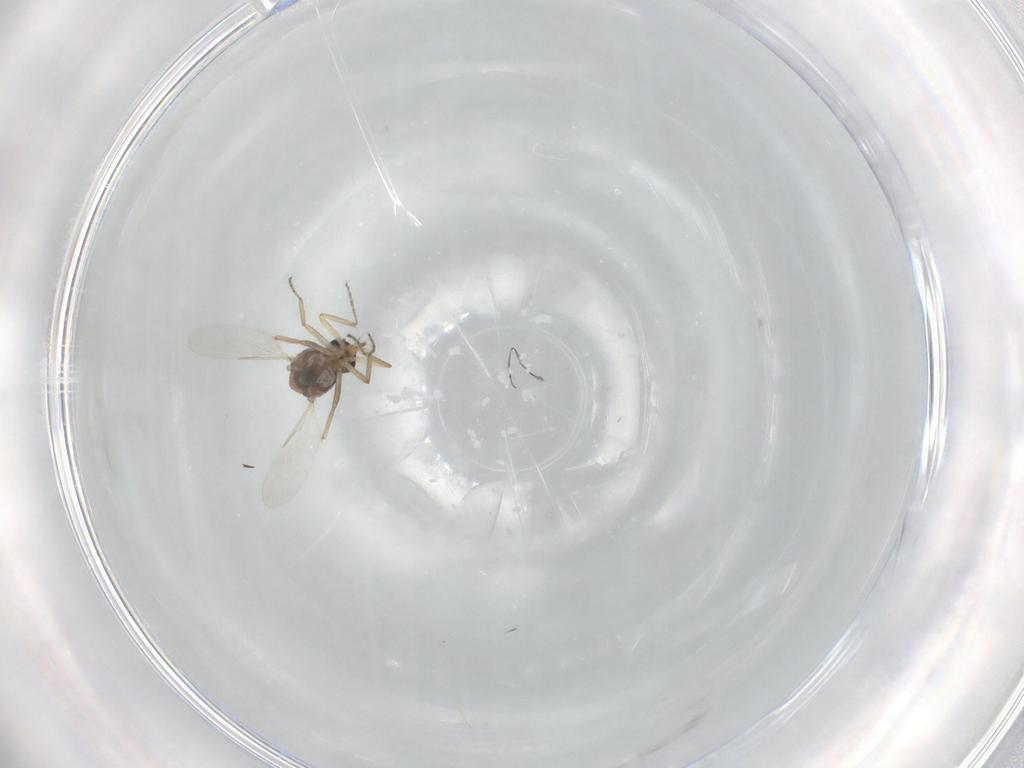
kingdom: Animalia
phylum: Arthropoda
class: Insecta
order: Diptera
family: Ceratopogonidae
